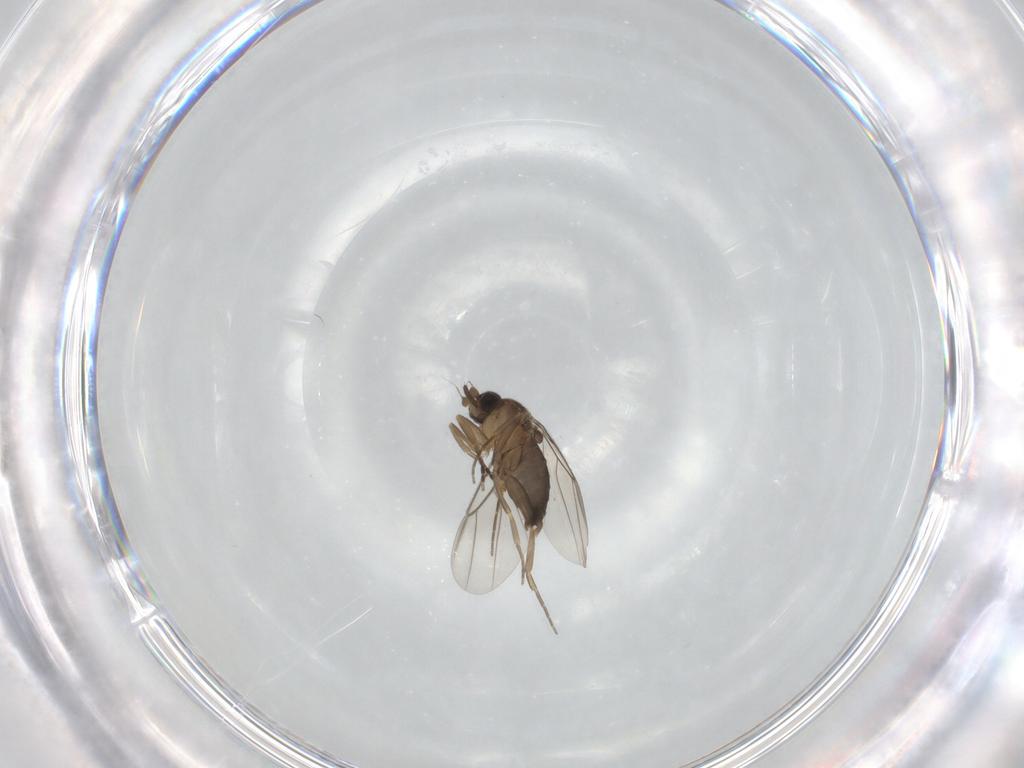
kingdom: Animalia
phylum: Arthropoda
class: Insecta
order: Diptera
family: Phoridae
